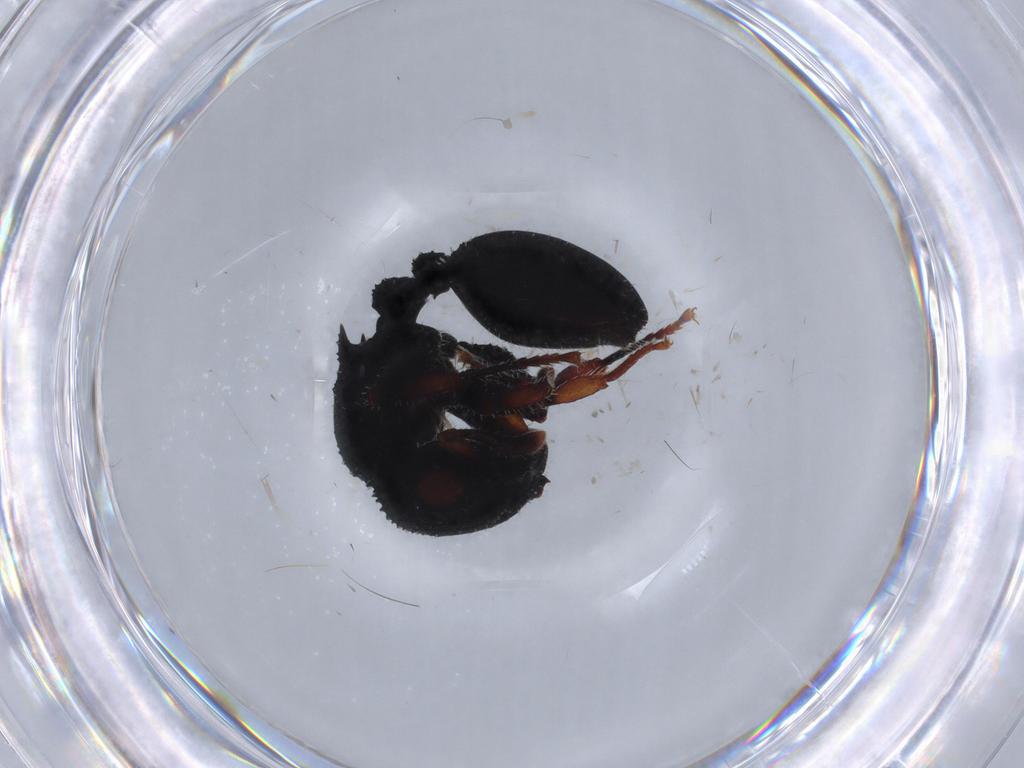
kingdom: Animalia
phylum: Arthropoda
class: Insecta
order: Hymenoptera
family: Formicidae
